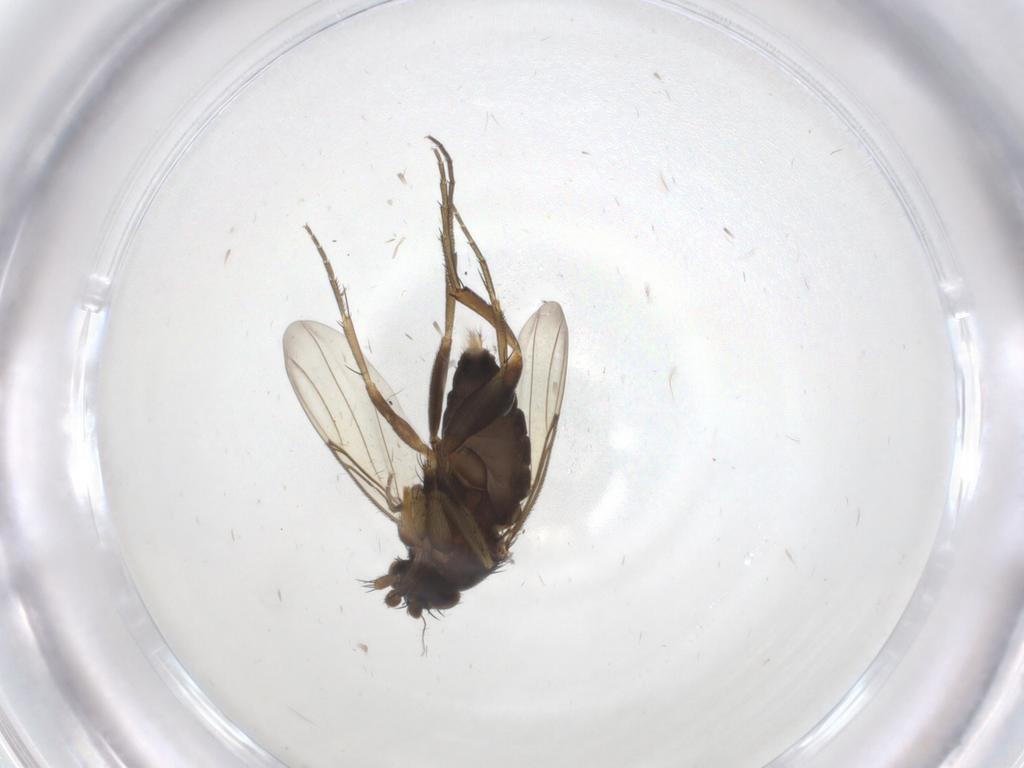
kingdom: Animalia
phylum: Arthropoda
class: Insecta
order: Diptera
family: Phoridae
